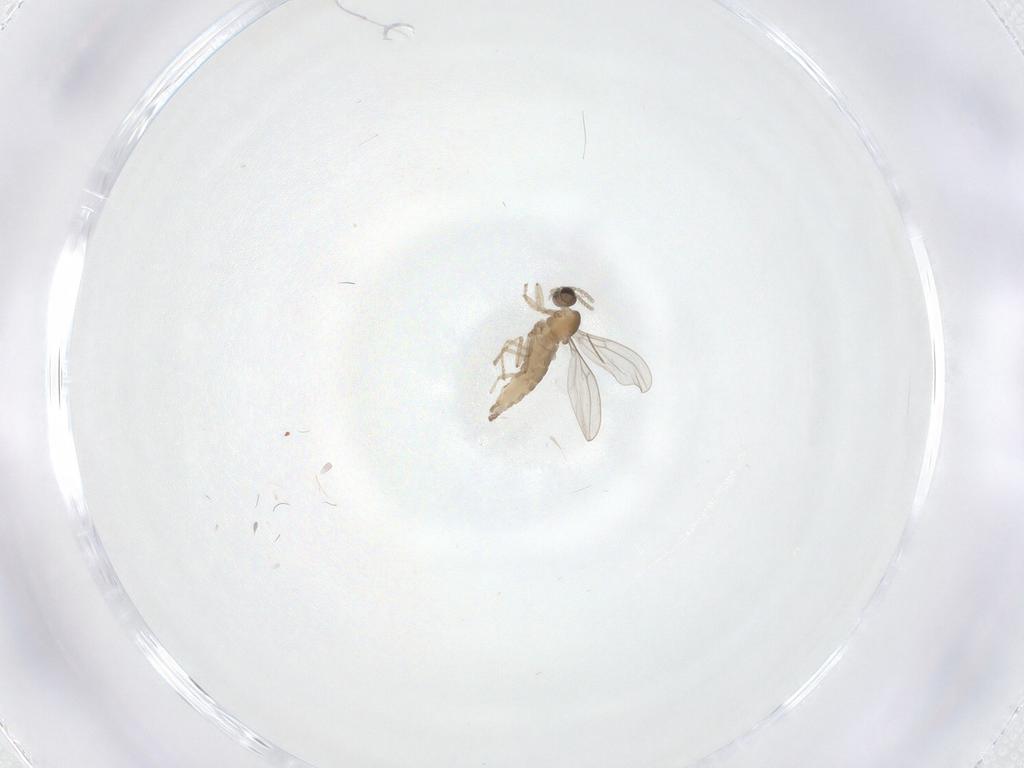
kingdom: Animalia
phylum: Arthropoda
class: Insecta
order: Diptera
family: Cecidomyiidae
